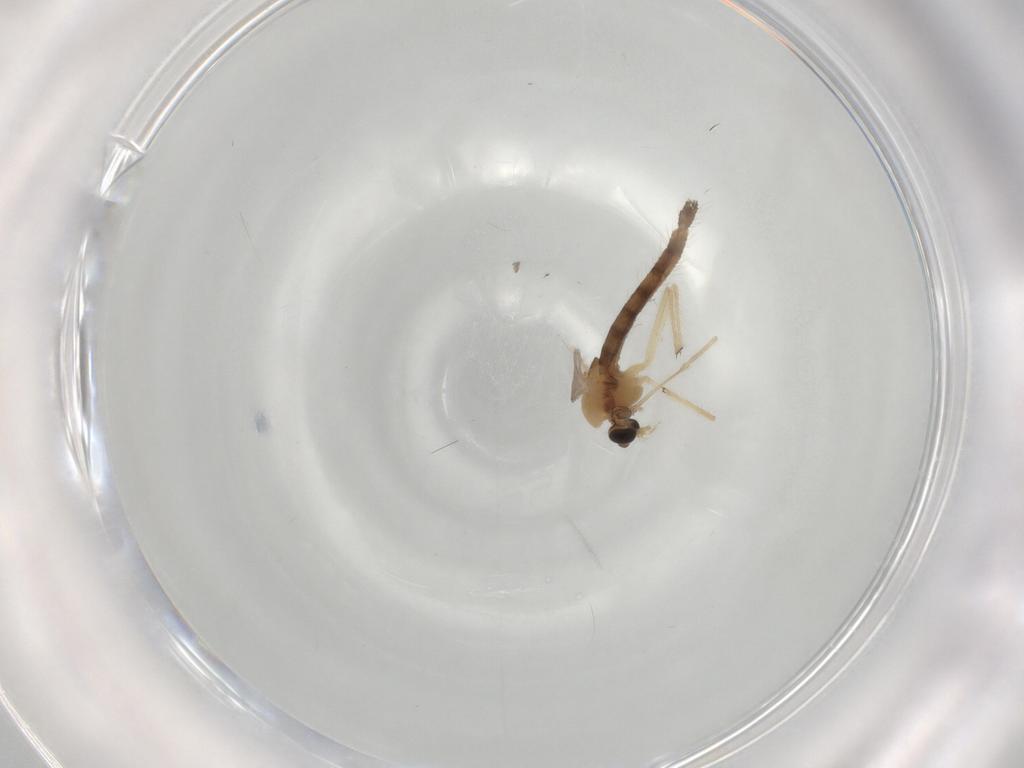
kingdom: Animalia
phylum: Arthropoda
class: Insecta
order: Diptera
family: Chironomidae
